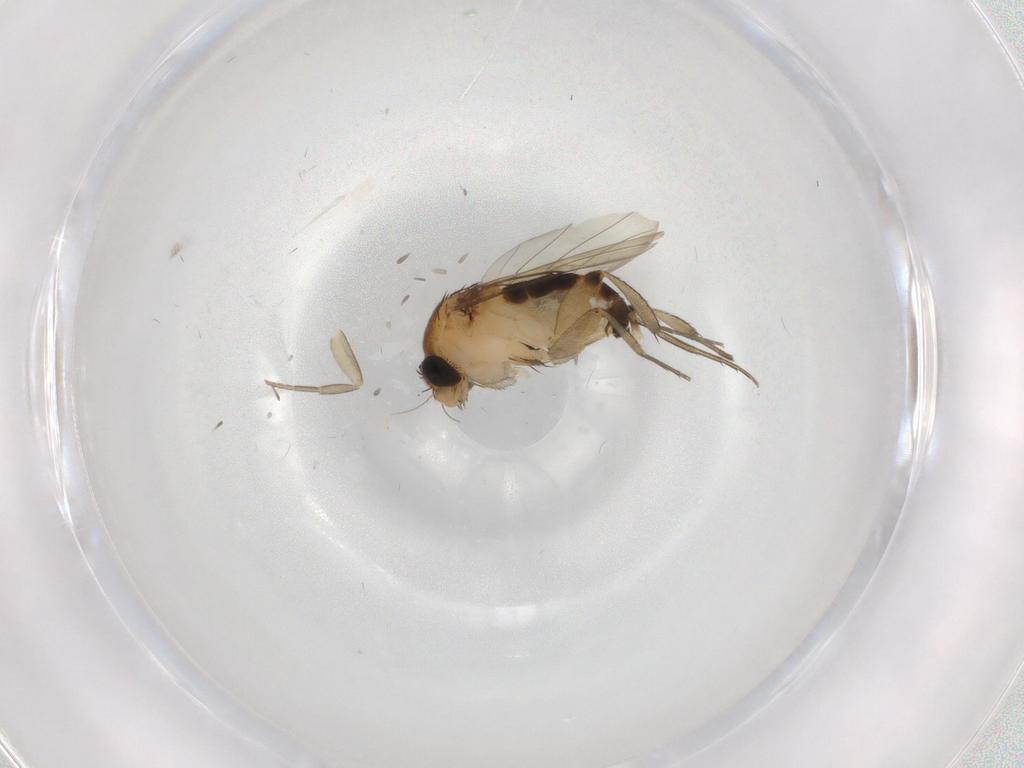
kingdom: Animalia
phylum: Arthropoda
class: Insecta
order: Diptera
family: Phoridae
